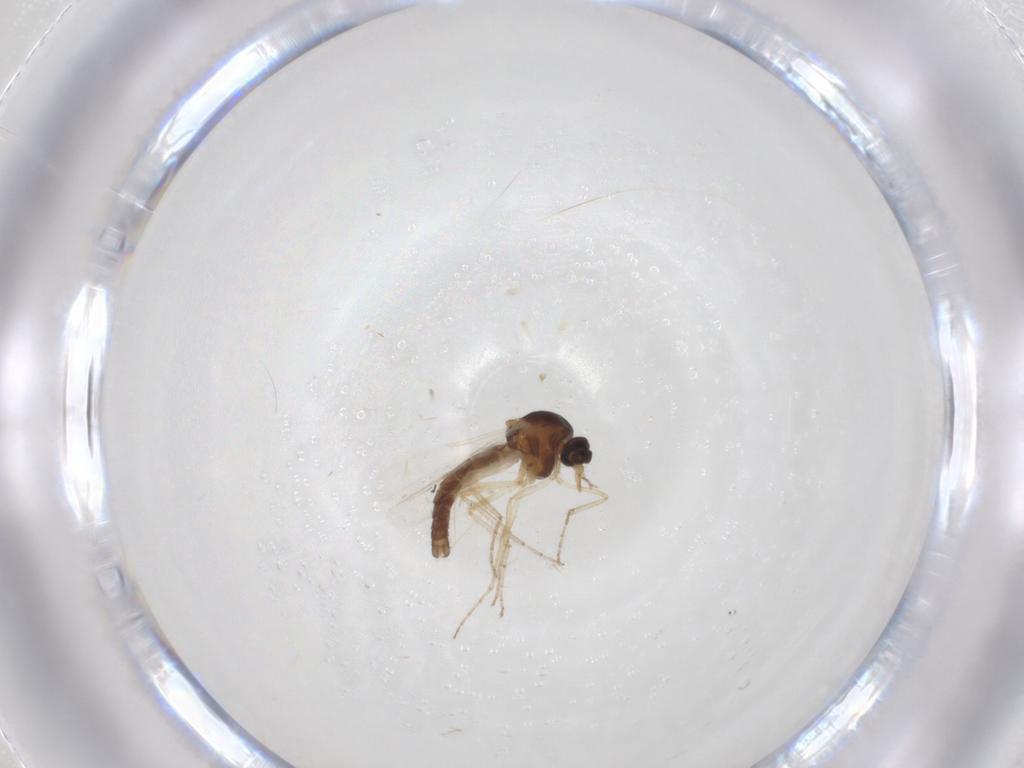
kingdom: Animalia
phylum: Arthropoda
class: Insecta
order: Diptera
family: Ceratopogonidae
